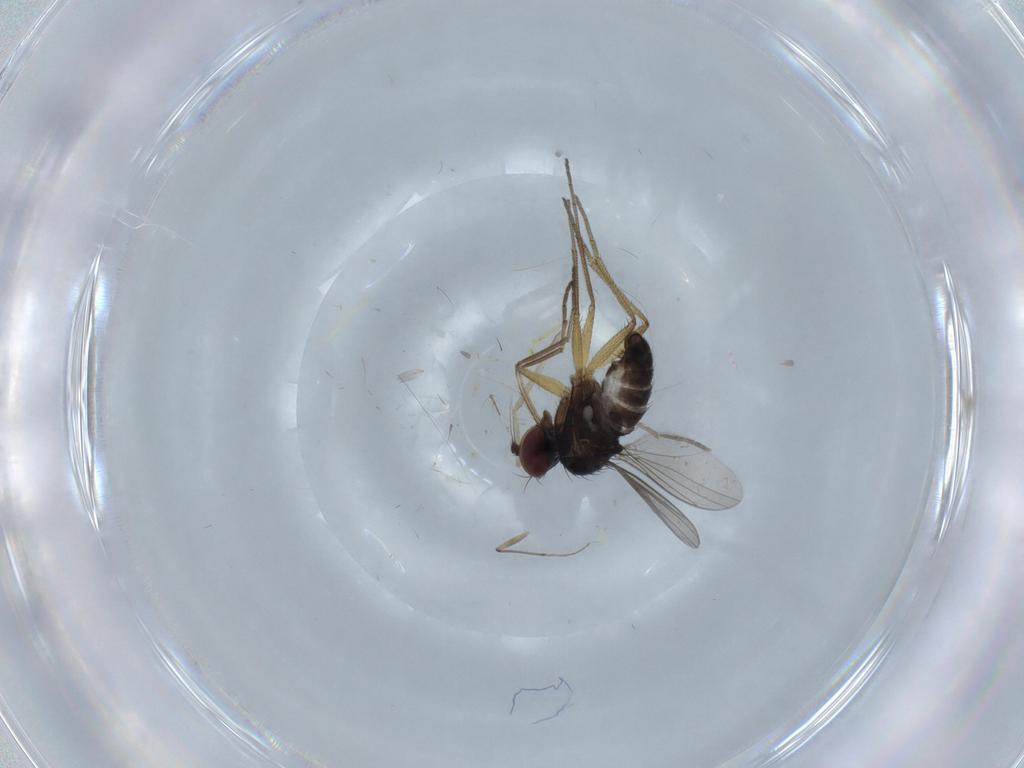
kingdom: Animalia
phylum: Arthropoda
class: Insecta
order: Diptera
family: Dolichopodidae
